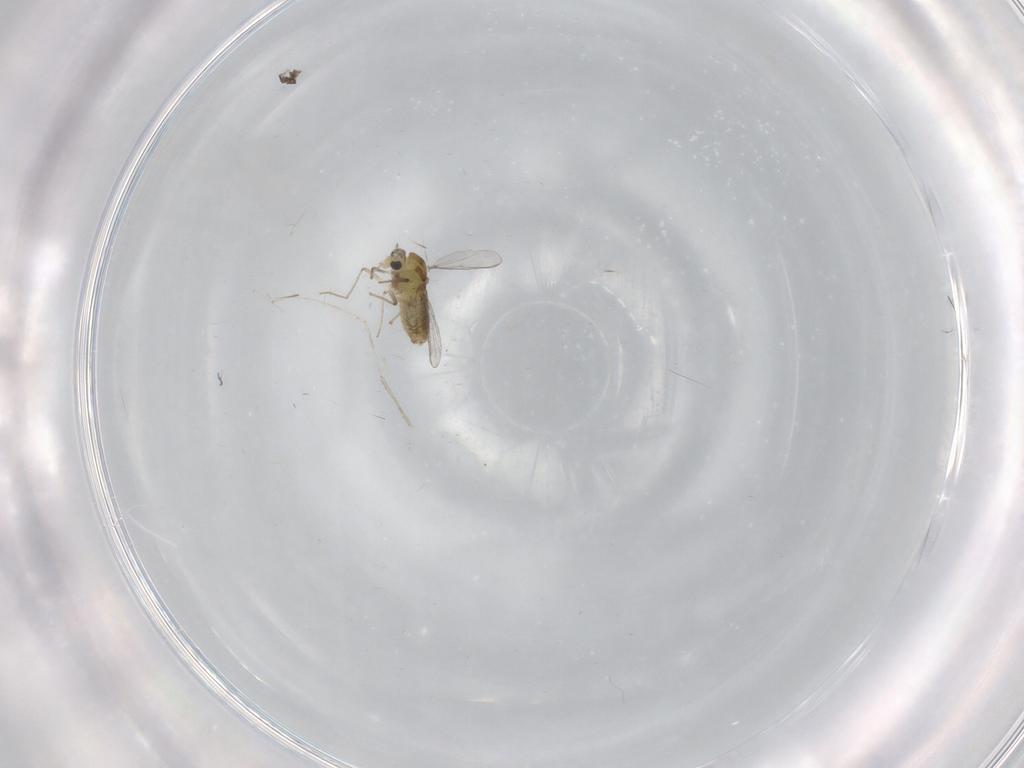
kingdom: Animalia
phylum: Arthropoda
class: Insecta
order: Diptera
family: Chironomidae
